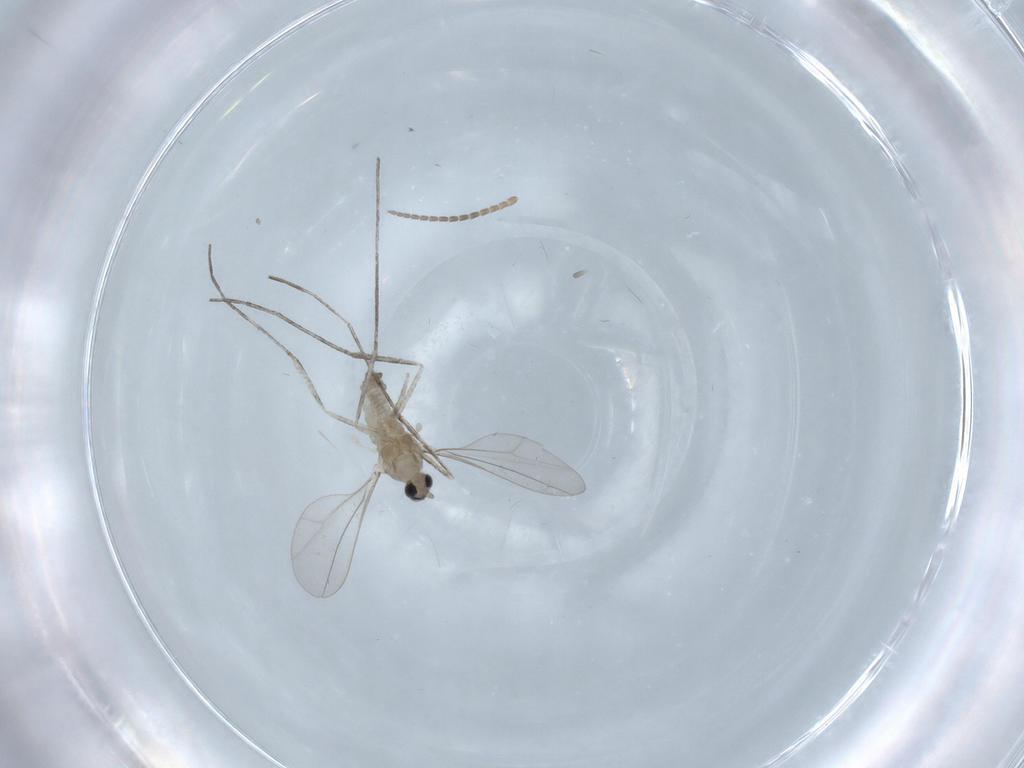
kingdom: Animalia
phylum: Arthropoda
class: Insecta
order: Diptera
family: Sciaridae
